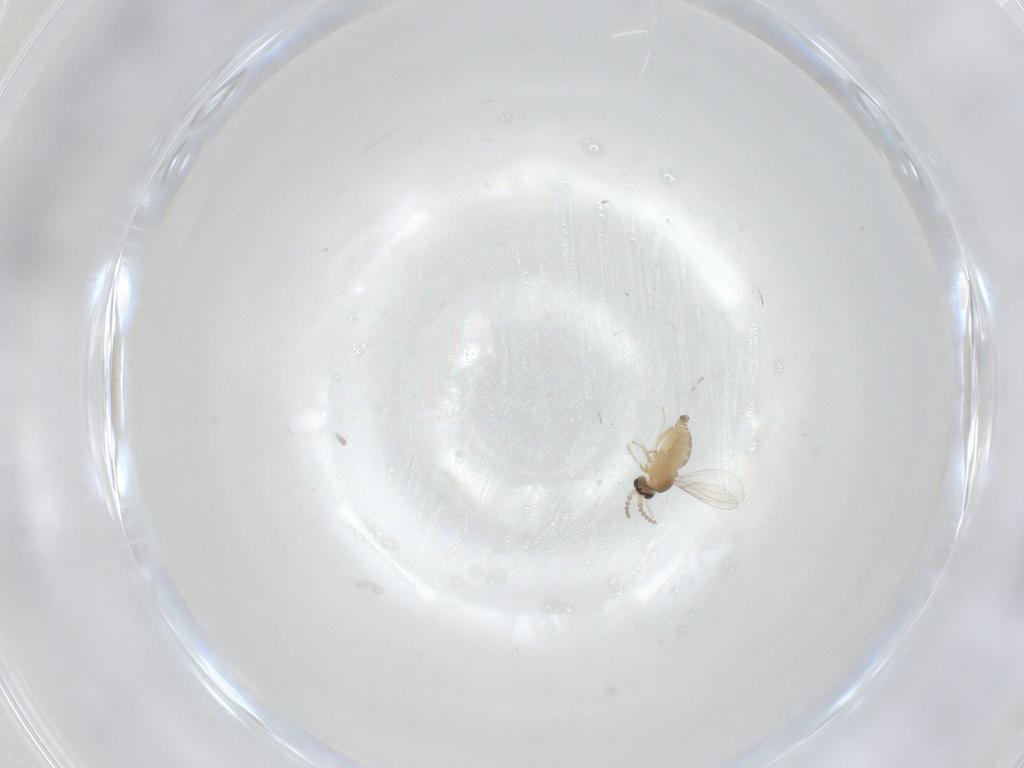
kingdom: Animalia
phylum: Arthropoda
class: Insecta
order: Diptera
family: Cecidomyiidae
